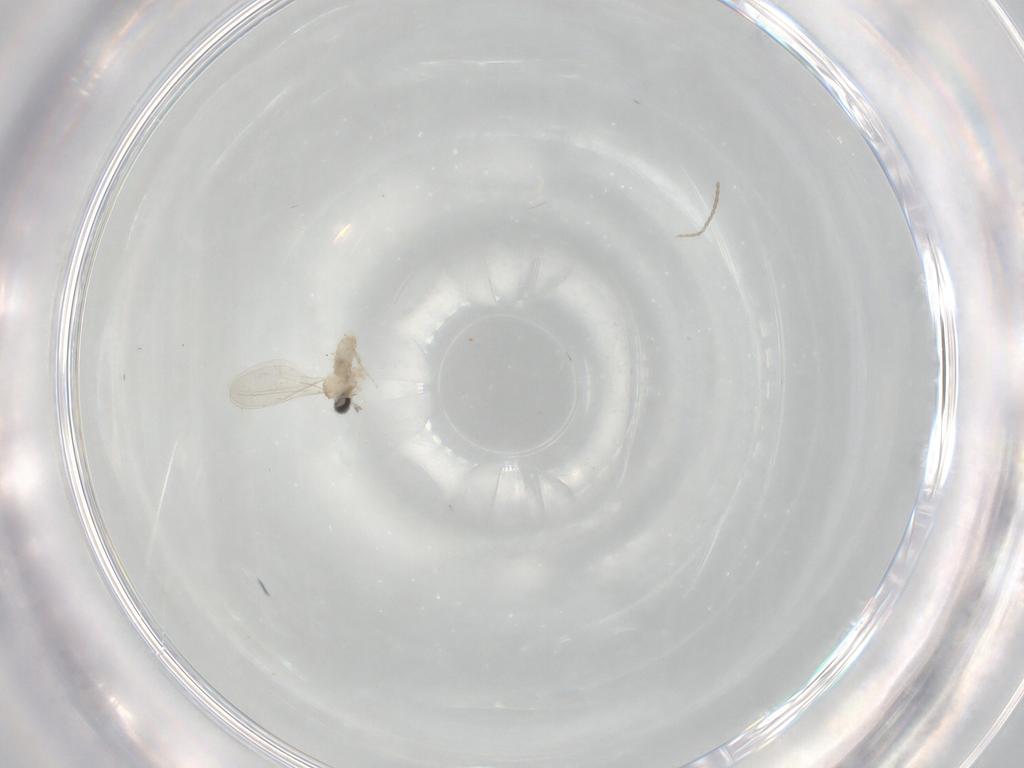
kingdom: Animalia
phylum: Arthropoda
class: Insecta
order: Diptera
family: Cecidomyiidae
